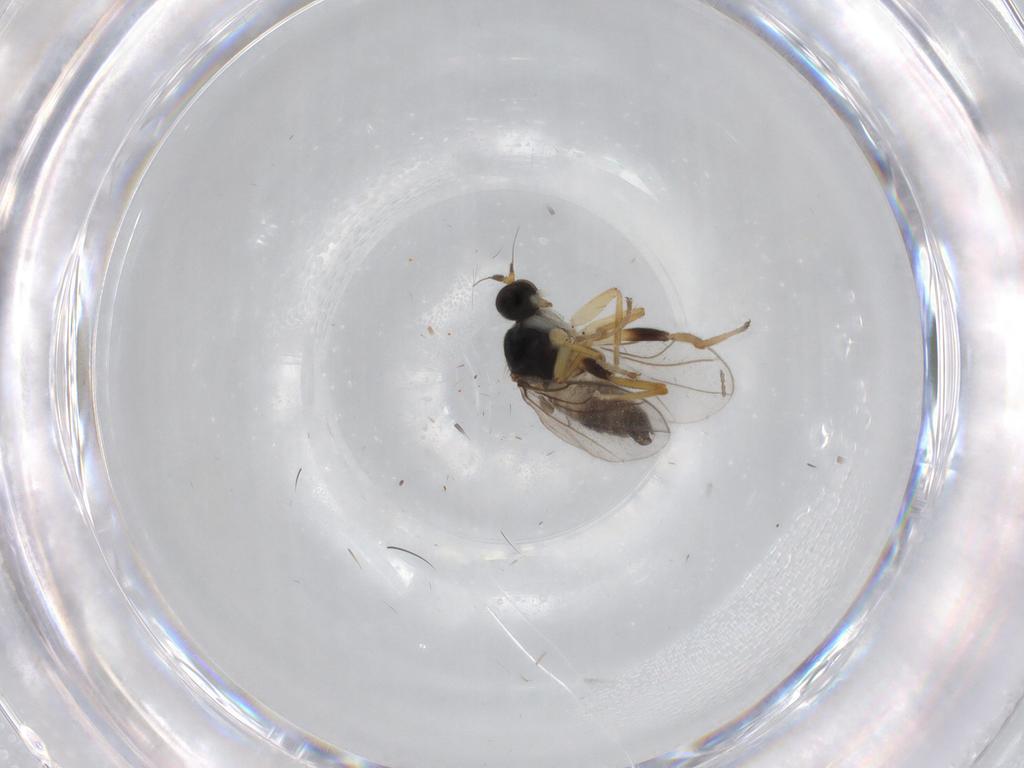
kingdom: Animalia
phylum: Arthropoda
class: Insecta
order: Diptera
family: Hybotidae
